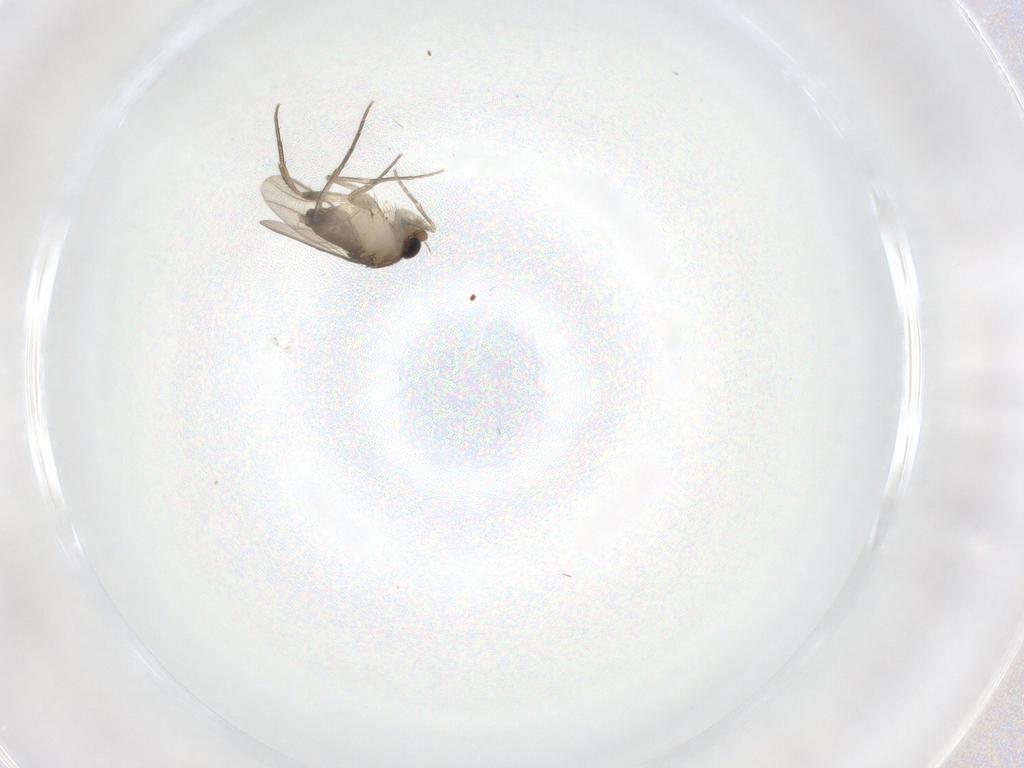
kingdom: Animalia
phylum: Arthropoda
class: Insecta
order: Diptera
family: Phoridae
